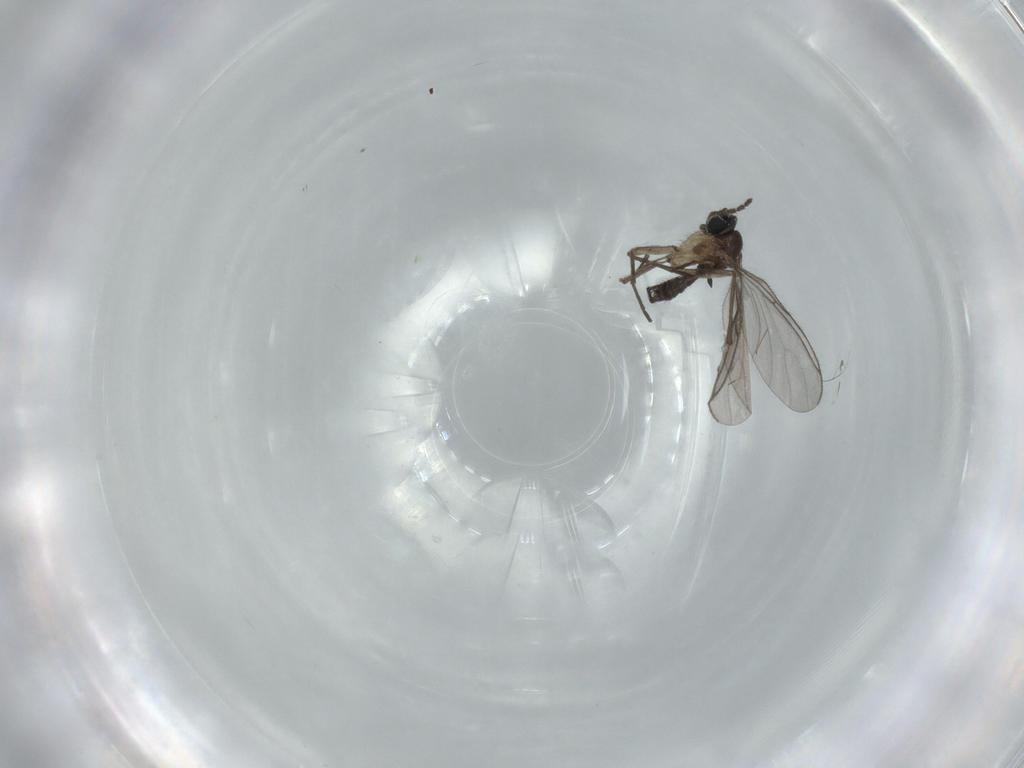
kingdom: Animalia
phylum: Arthropoda
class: Insecta
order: Diptera
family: Sciaridae
